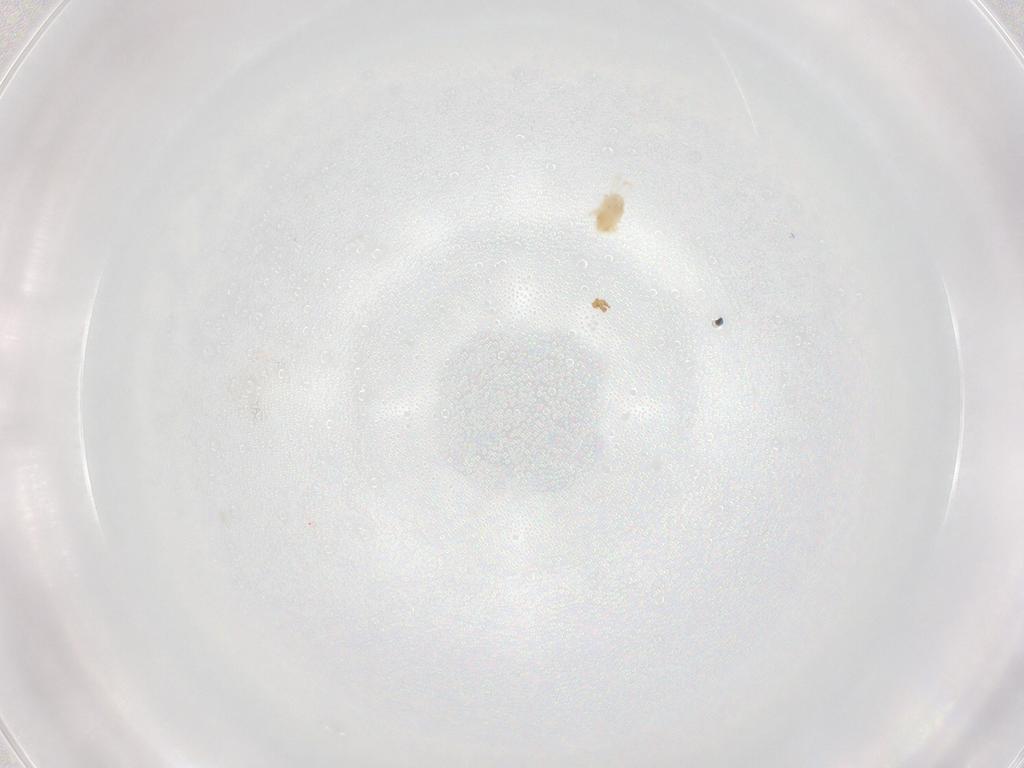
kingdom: Animalia
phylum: Arthropoda
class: Arachnida
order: Trombidiformes
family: Eupodidae
